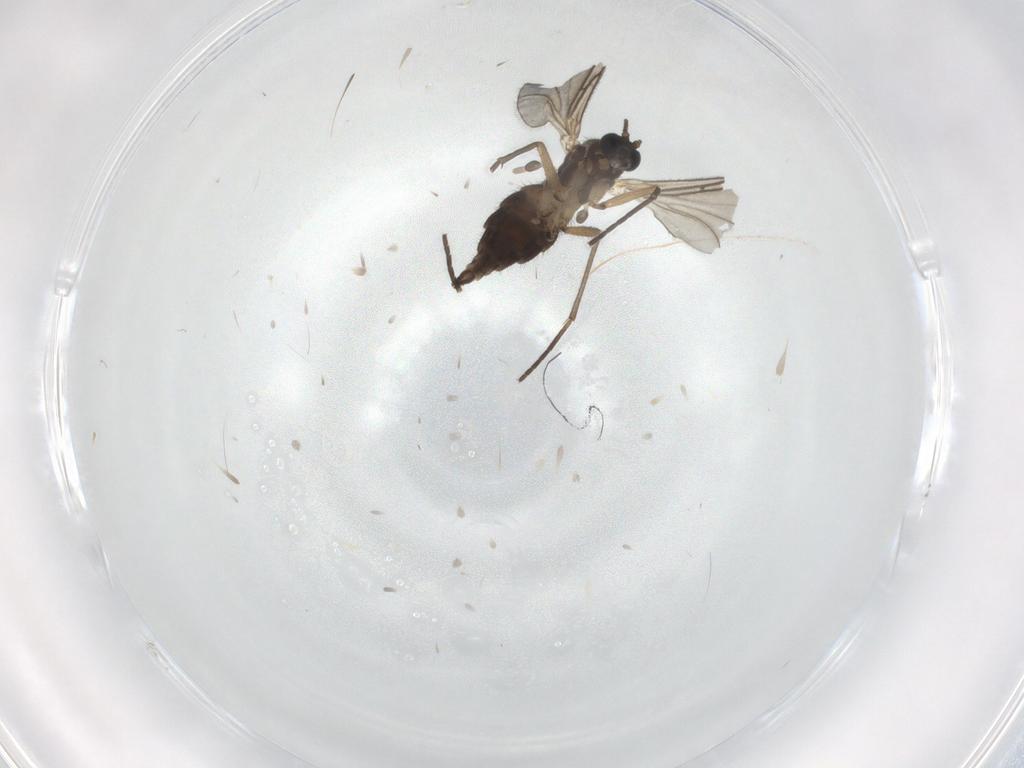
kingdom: Animalia
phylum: Arthropoda
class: Insecta
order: Diptera
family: Sciaridae
